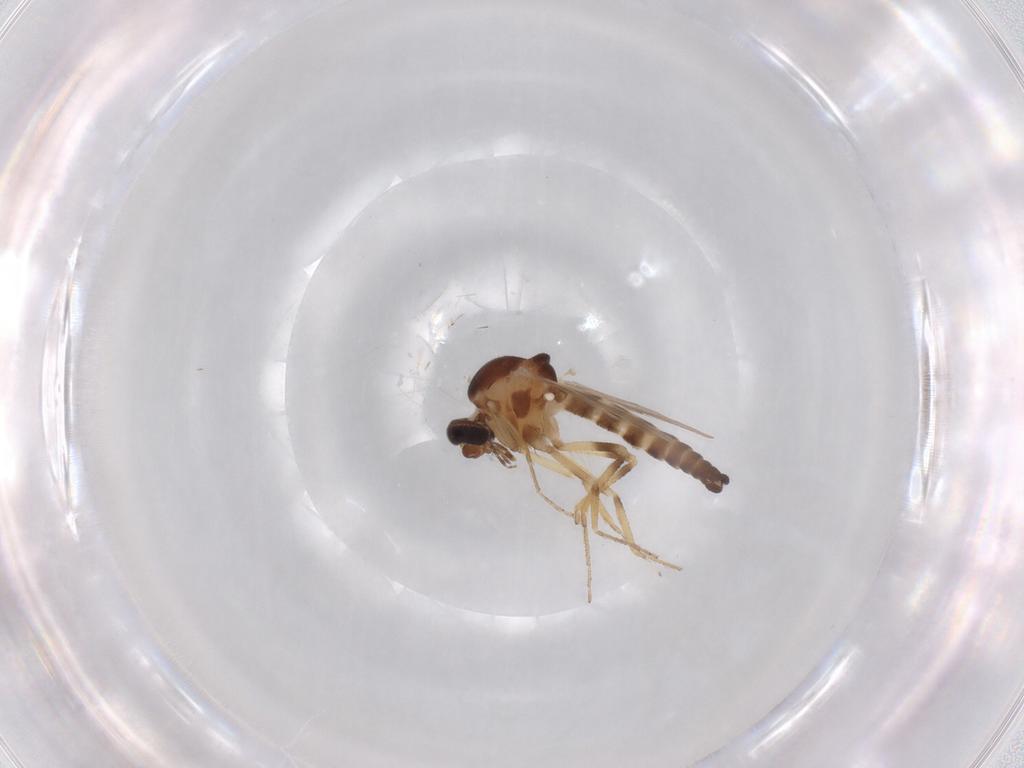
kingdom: Animalia
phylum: Arthropoda
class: Insecta
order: Diptera
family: Ceratopogonidae
